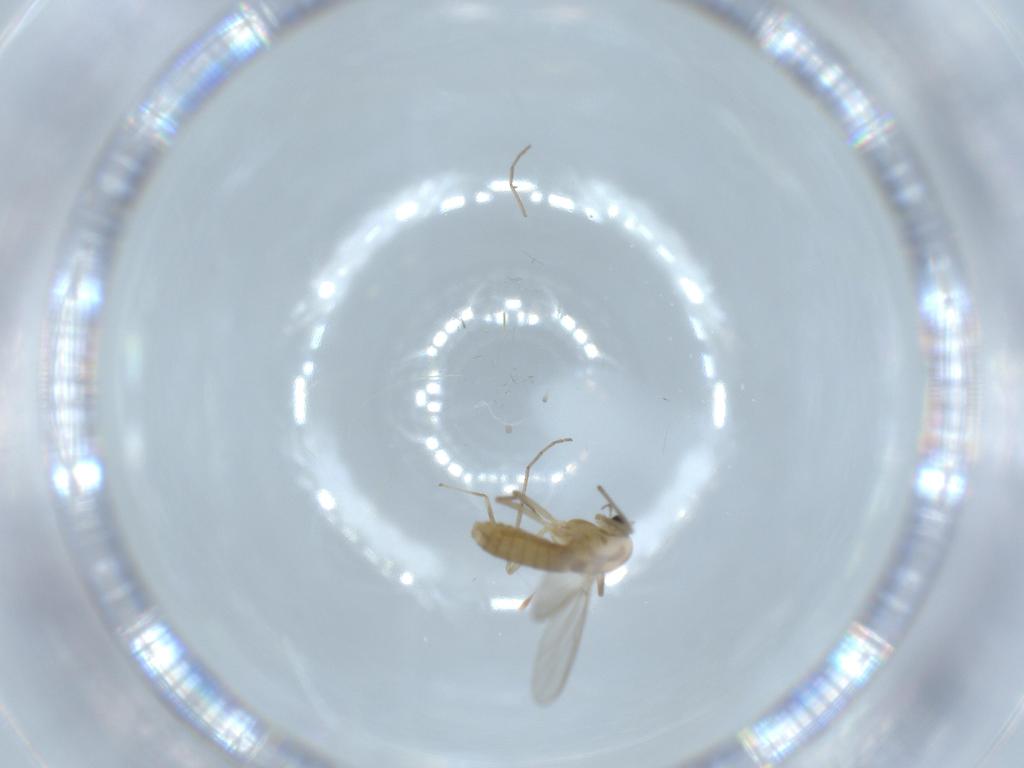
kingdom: Animalia
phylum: Arthropoda
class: Insecta
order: Diptera
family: Chironomidae
